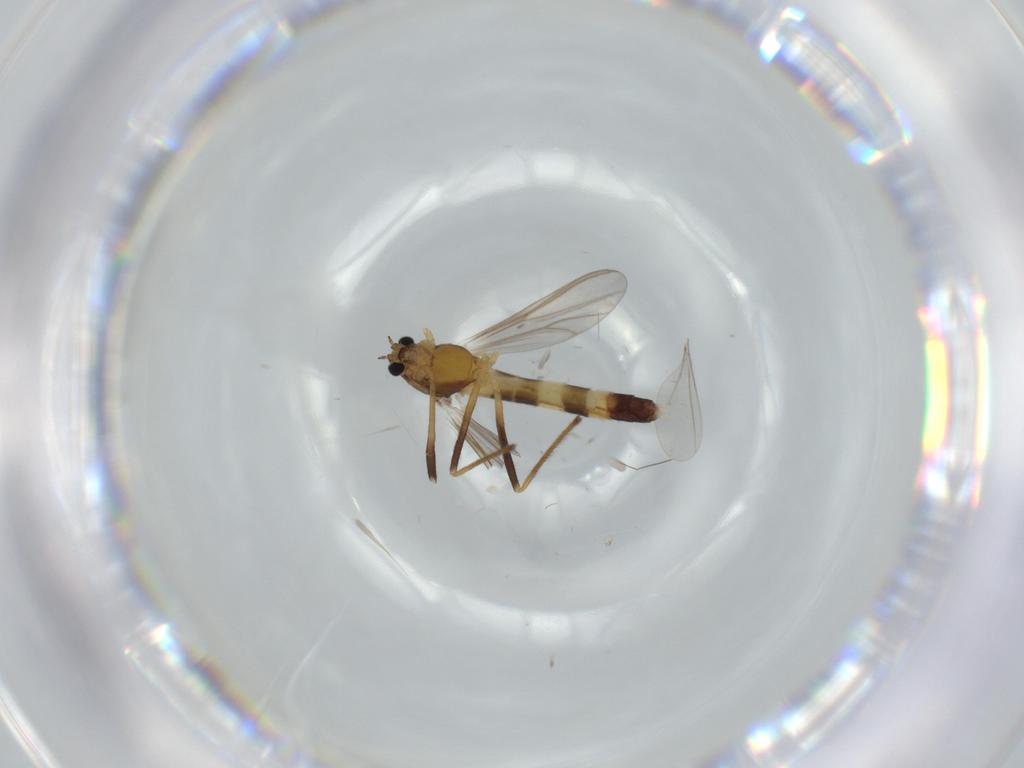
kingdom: Animalia
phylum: Arthropoda
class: Insecta
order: Diptera
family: Chironomidae
